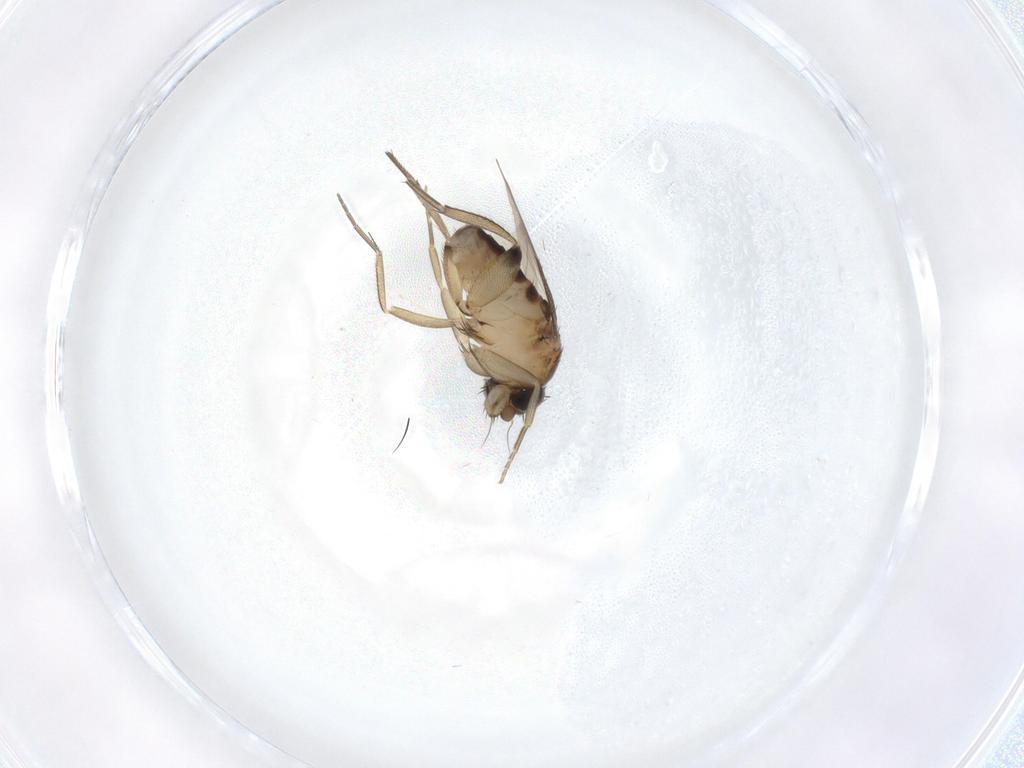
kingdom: Animalia
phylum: Arthropoda
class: Insecta
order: Diptera
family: Phoridae
